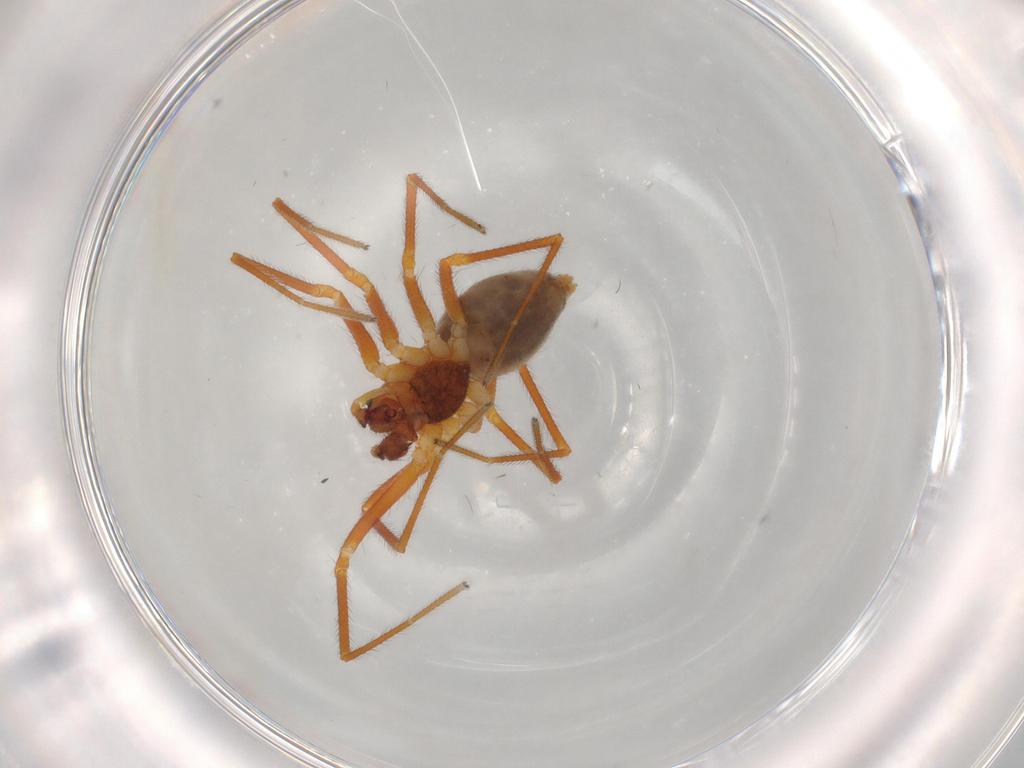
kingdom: Animalia
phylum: Arthropoda
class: Arachnida
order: Araneae
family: Linyphiidae
